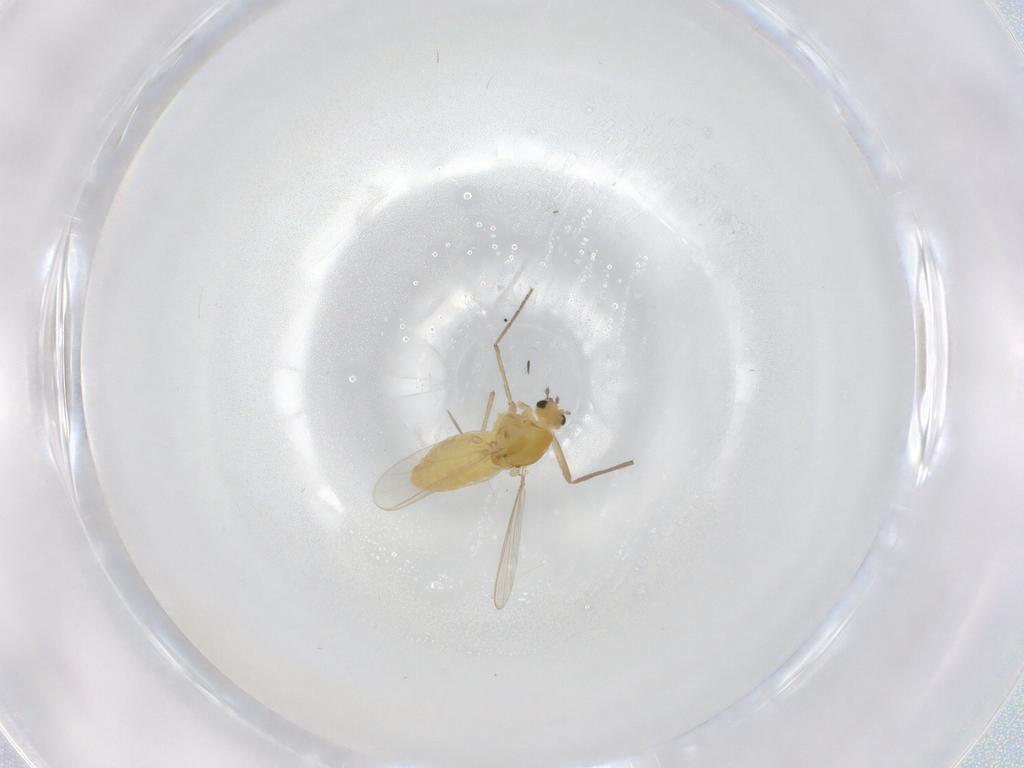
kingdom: Animalia
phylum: Arthropoda
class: Insecta
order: Diptera
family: Chironomidae
